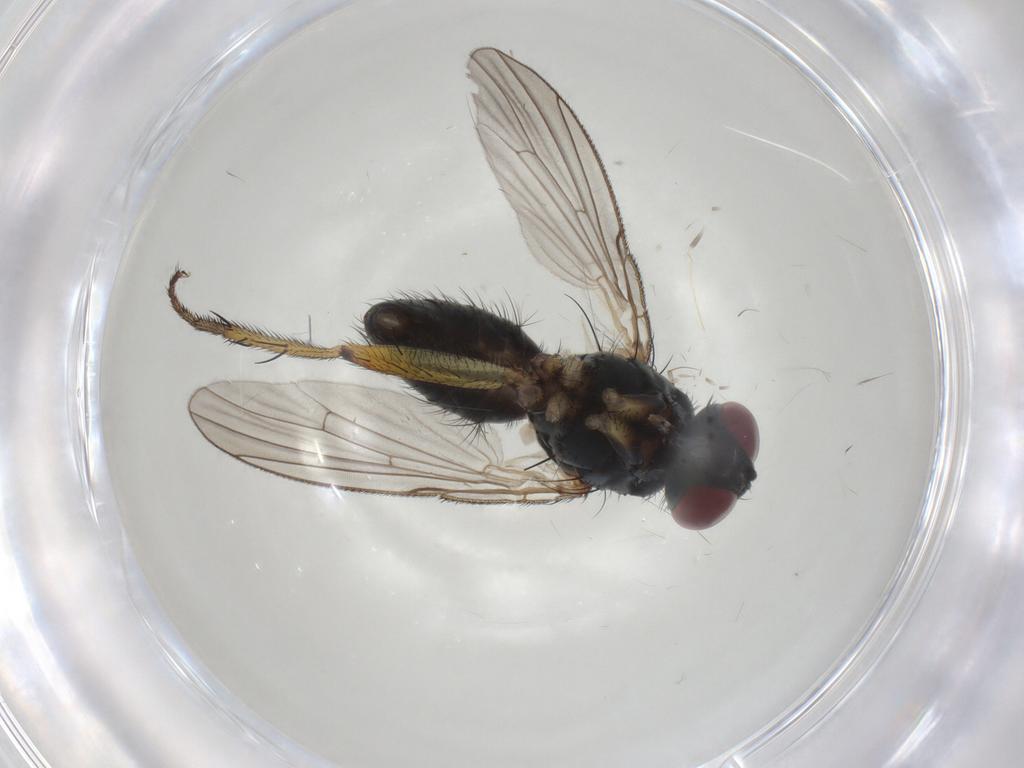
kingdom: Animalia
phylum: Arthropoda
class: Insecta
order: Diptera
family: Muscidae
